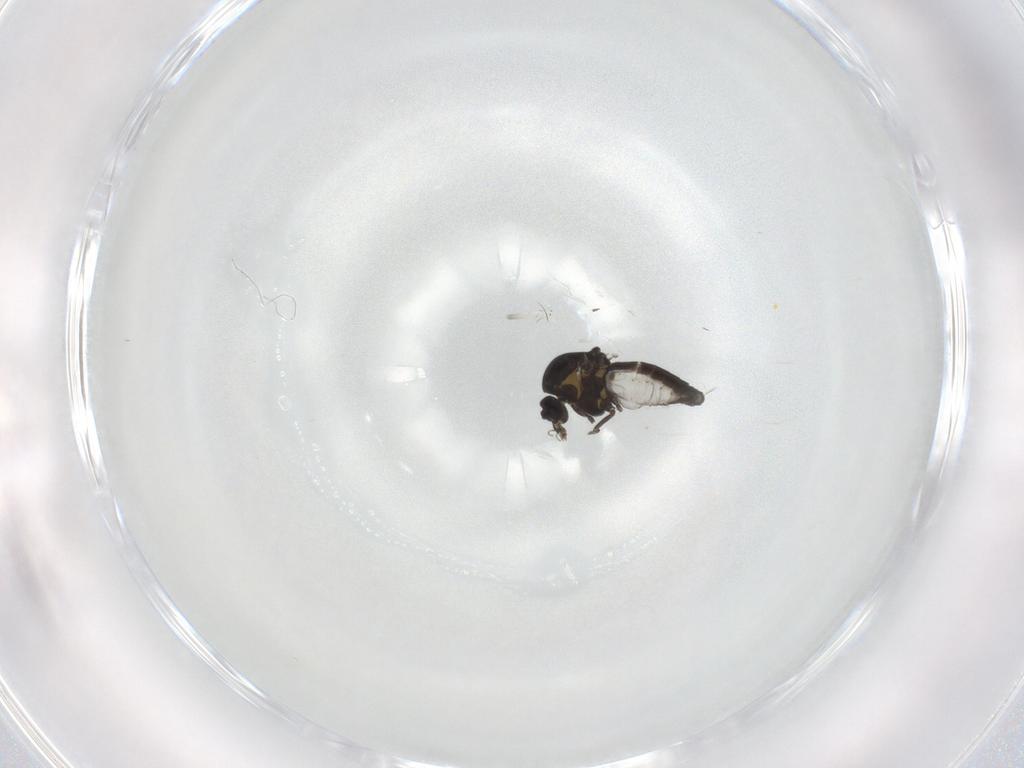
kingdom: Animalia
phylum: Arthropoda
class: Insecta
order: Diptera
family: Ceratopogonidae
